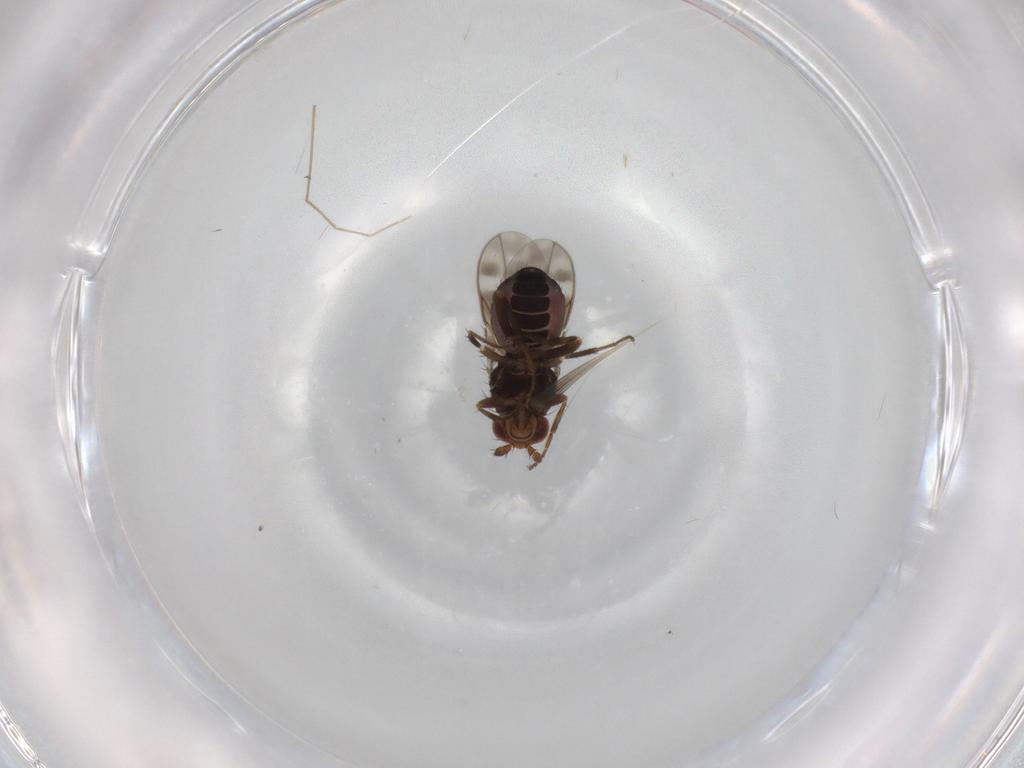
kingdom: Animalia
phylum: Arthropoda
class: Insecta
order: Diptera
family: Sphaeroceridae
